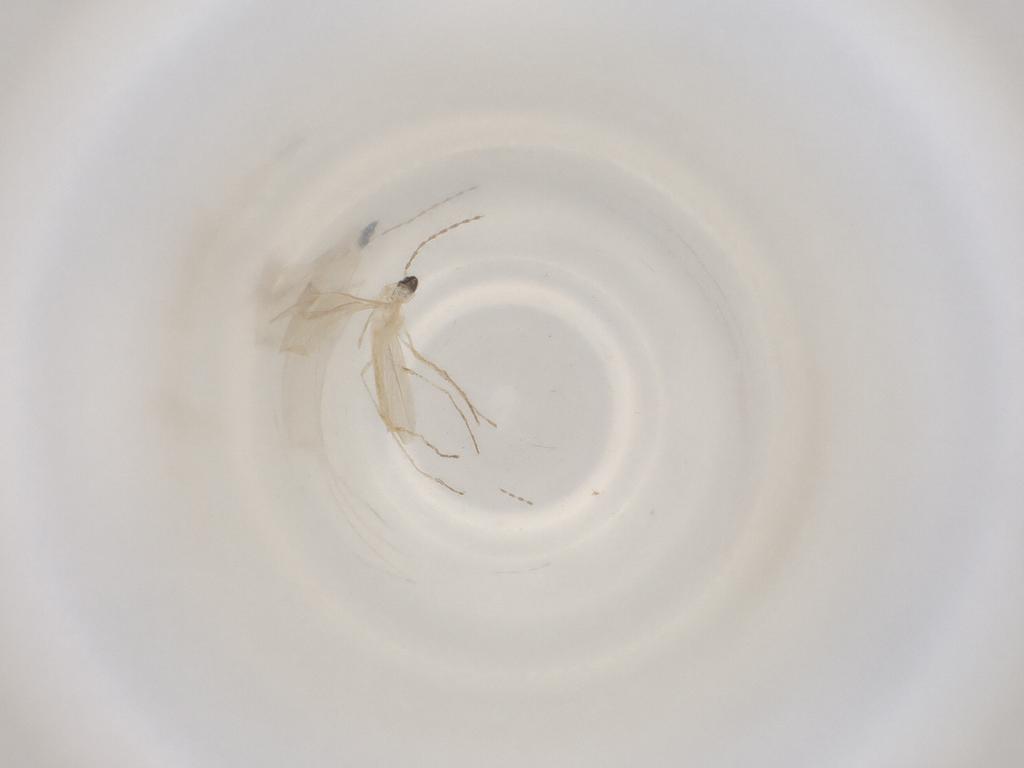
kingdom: Animalia
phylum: Arthropoda
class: Insecta
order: Diptera
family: Cecidomyiidae
